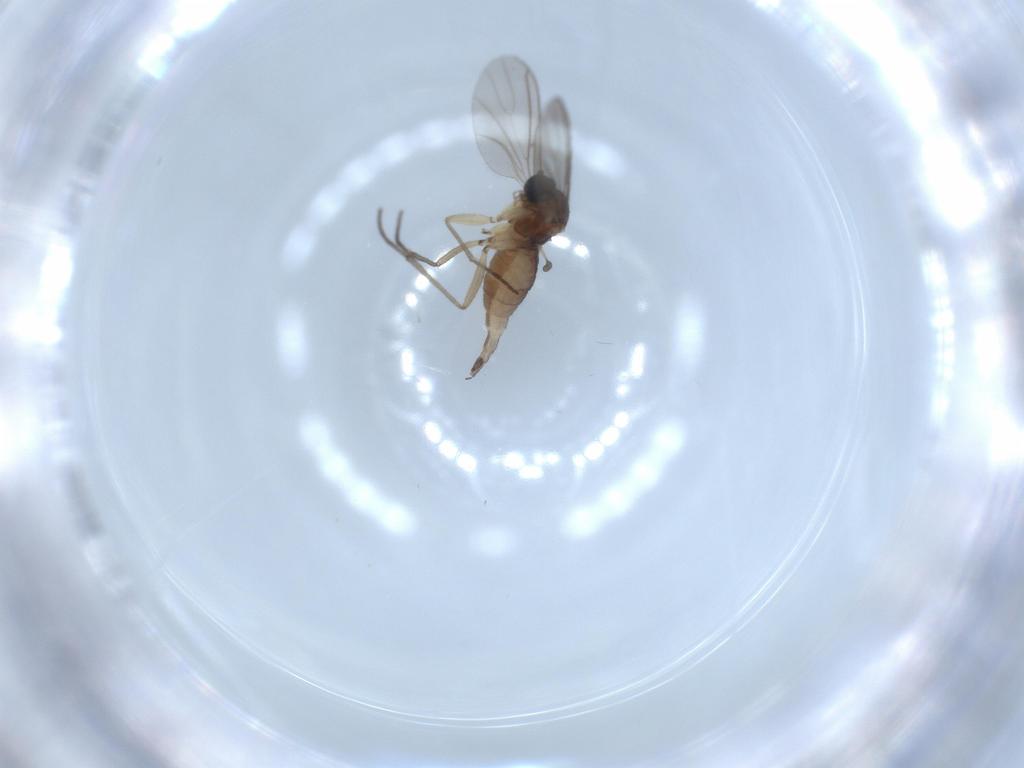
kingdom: Animalia
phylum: Arthropoda
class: Insecta
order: Diptera
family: Sciaridae
